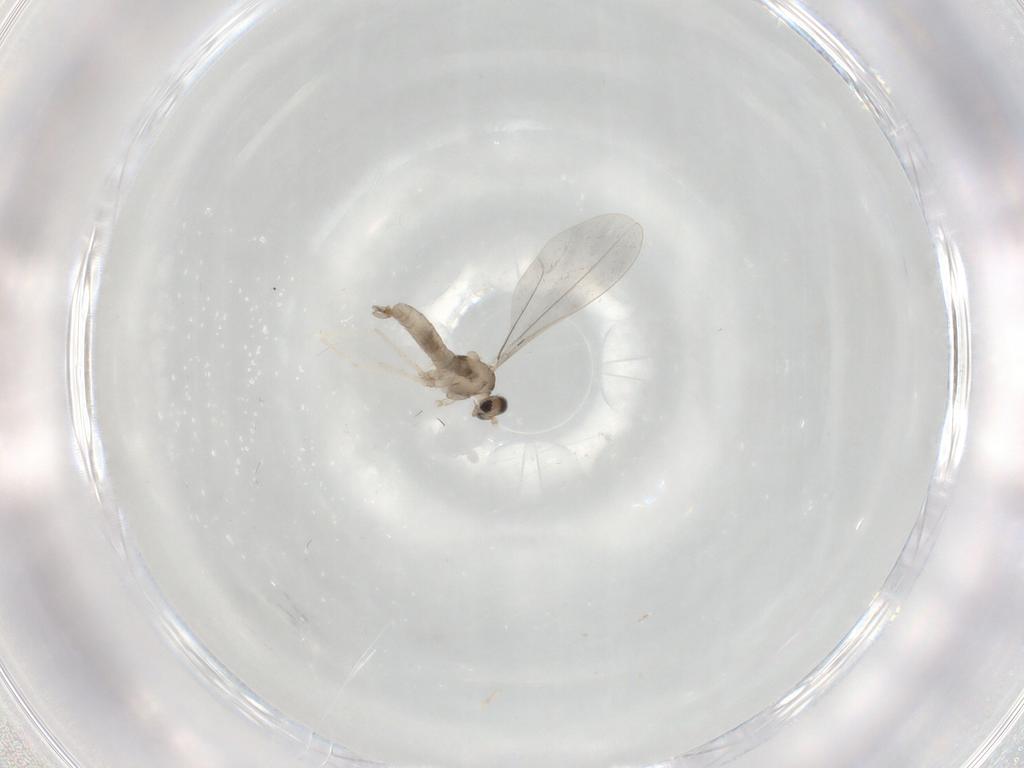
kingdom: Animalia
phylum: Arthropoda
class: Insecta
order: Diptera
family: Cecidomyiidae
